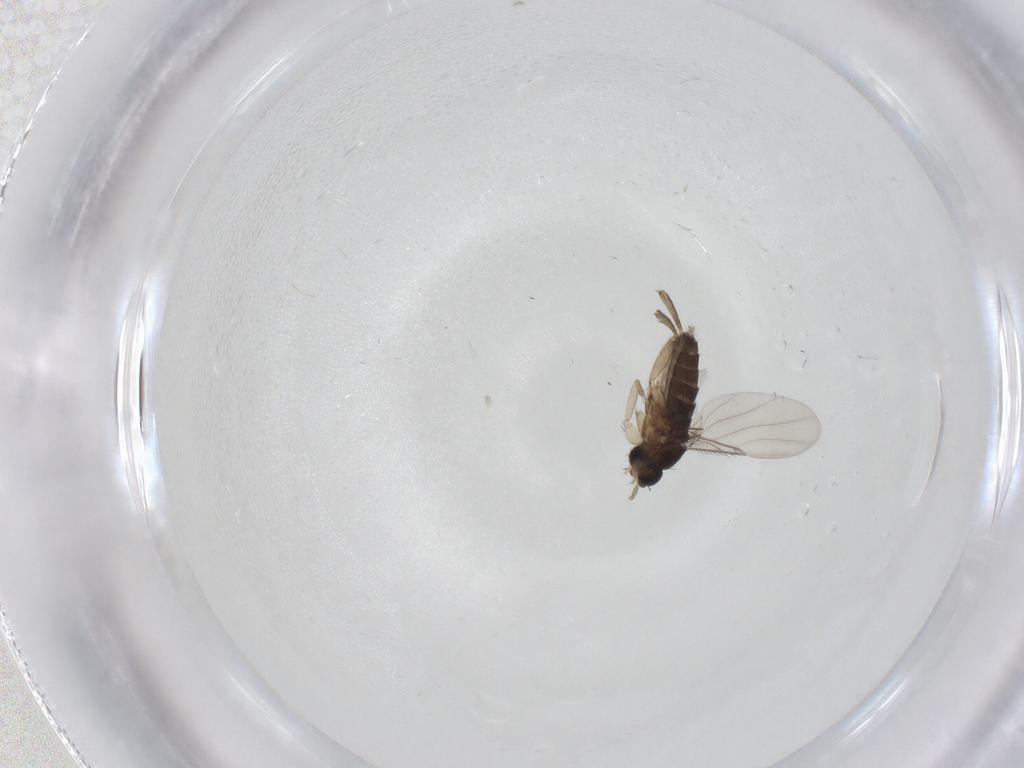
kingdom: Animalia
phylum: Arthropoda
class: Insecta
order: Diptera
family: Phoridae
